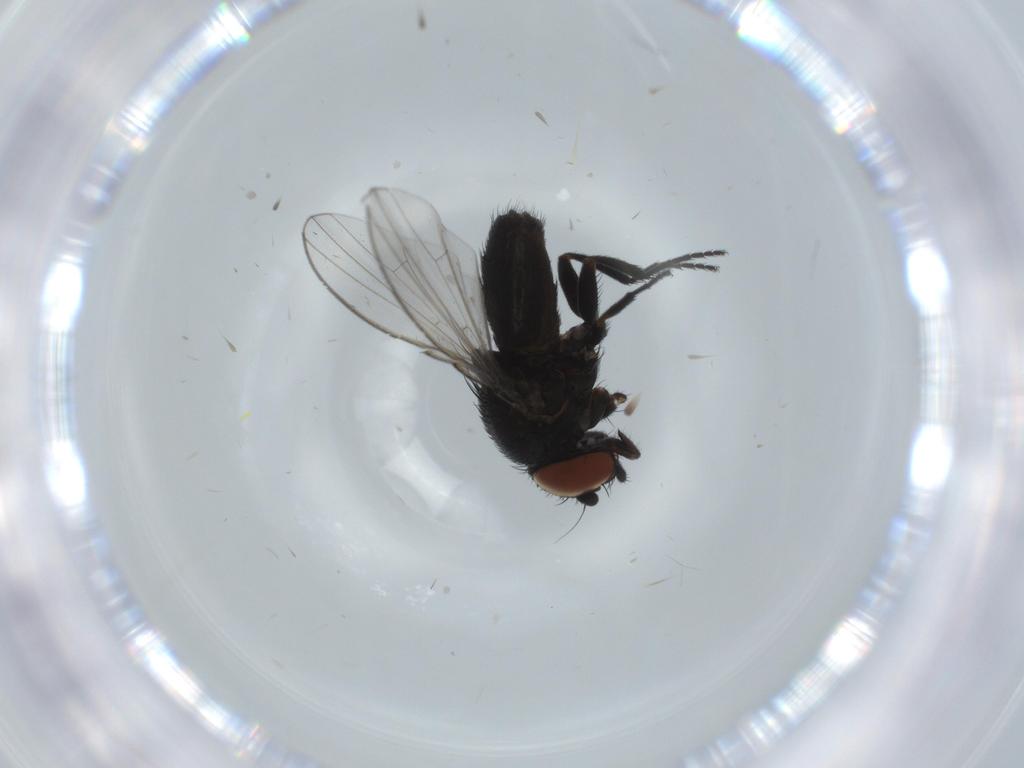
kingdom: Animalia
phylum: Arthropoda
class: Insecta
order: Diptera
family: Milichiidae
